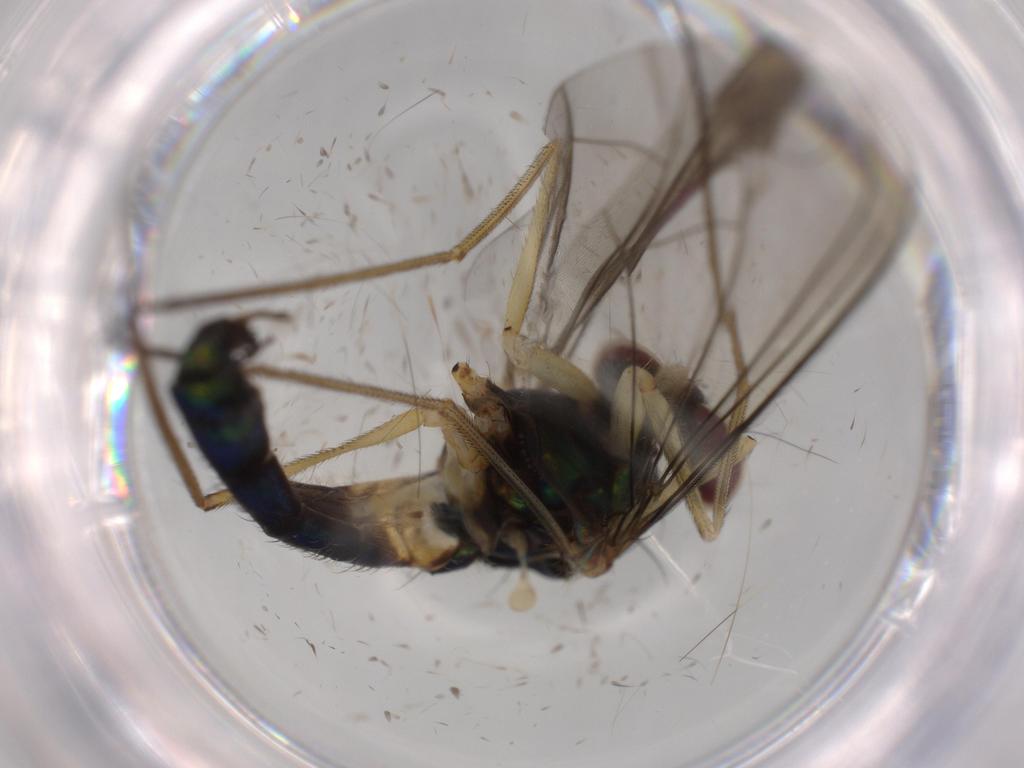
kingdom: Animalia
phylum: Arthropoda
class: Insecta
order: Diptera
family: Dolichopodidae
